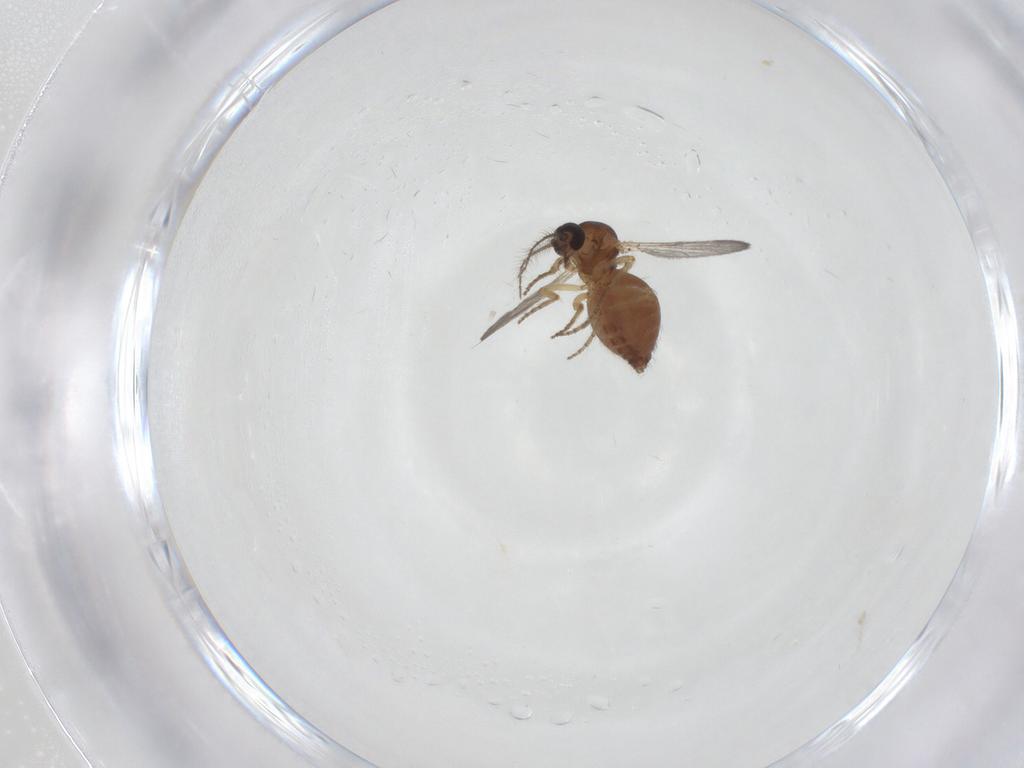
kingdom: Animalia
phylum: Arthropoda
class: Insecta
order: Diptera
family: Ceratopogonidae
